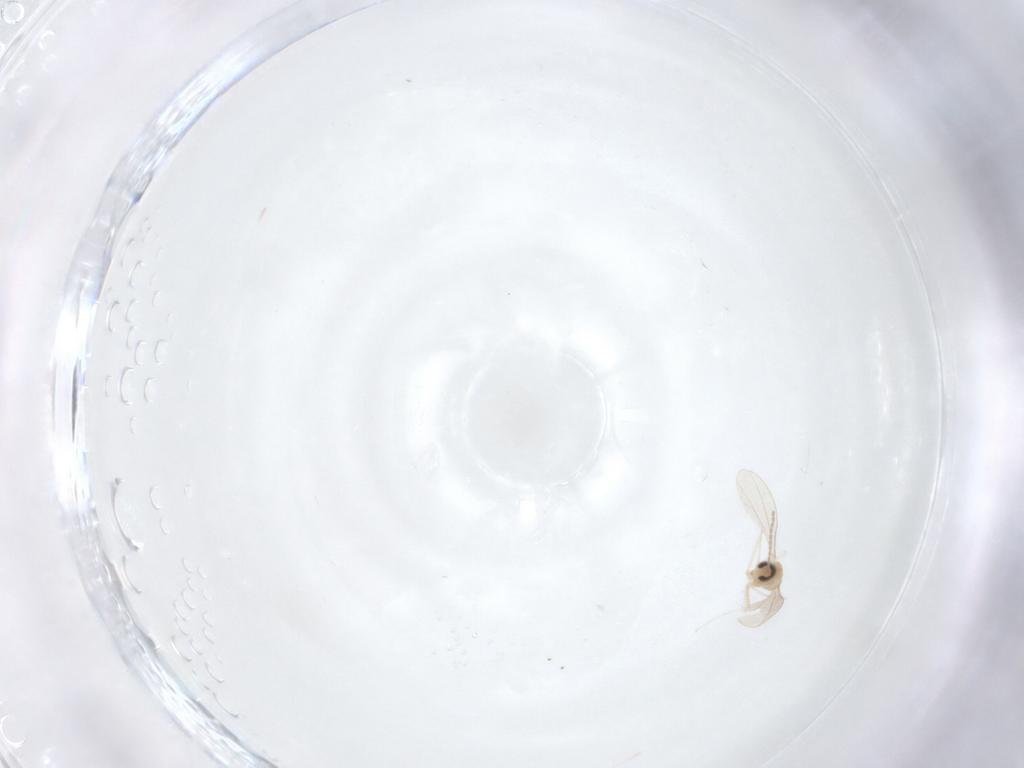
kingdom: Animalia
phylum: Arthropoda
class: Insecta
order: Diptera
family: Cecidomyiidae
